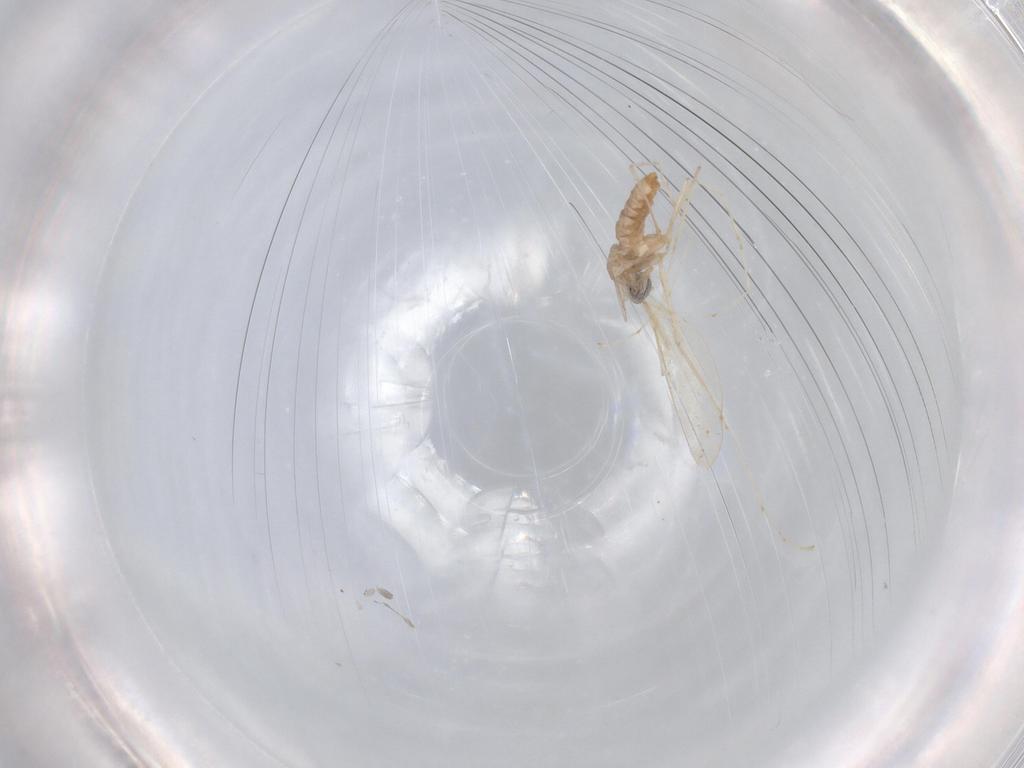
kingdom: Animalia
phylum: Arthropoda
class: Insecta
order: Diptera
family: Cecidomyiidae
